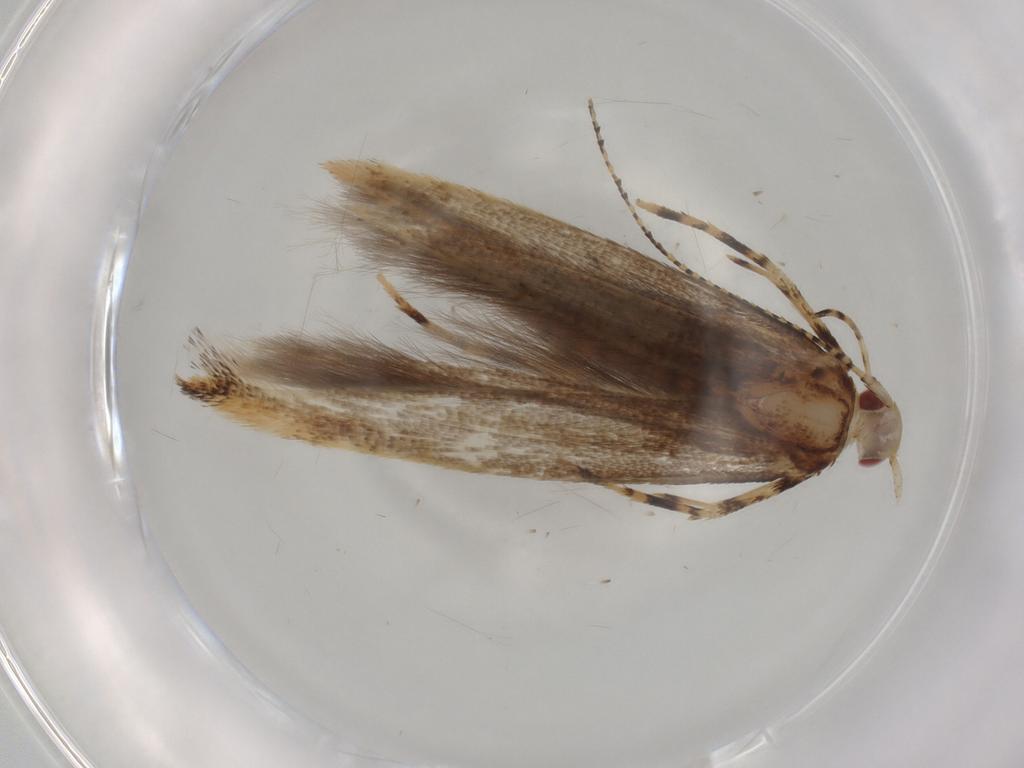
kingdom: Animalia
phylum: Arthropoda
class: Insecta
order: Lepidoptera
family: Cosmopterigidae
